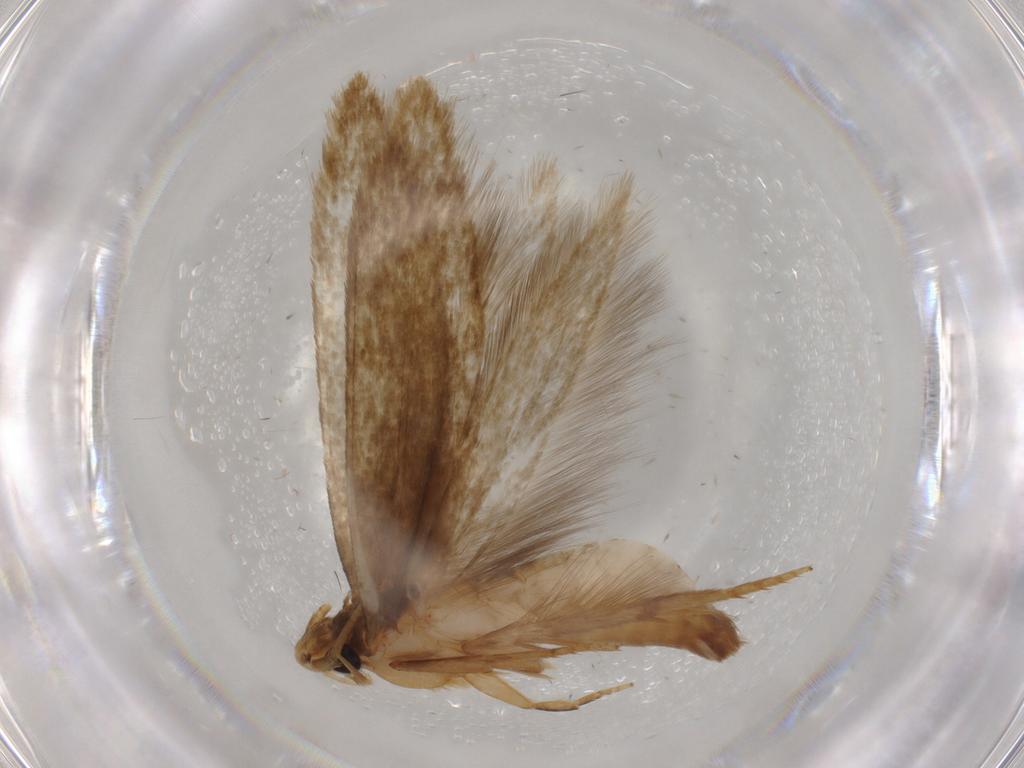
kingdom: Animalia
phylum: Arthropoda
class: Insecta
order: Lepidoptera
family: Tineidae
